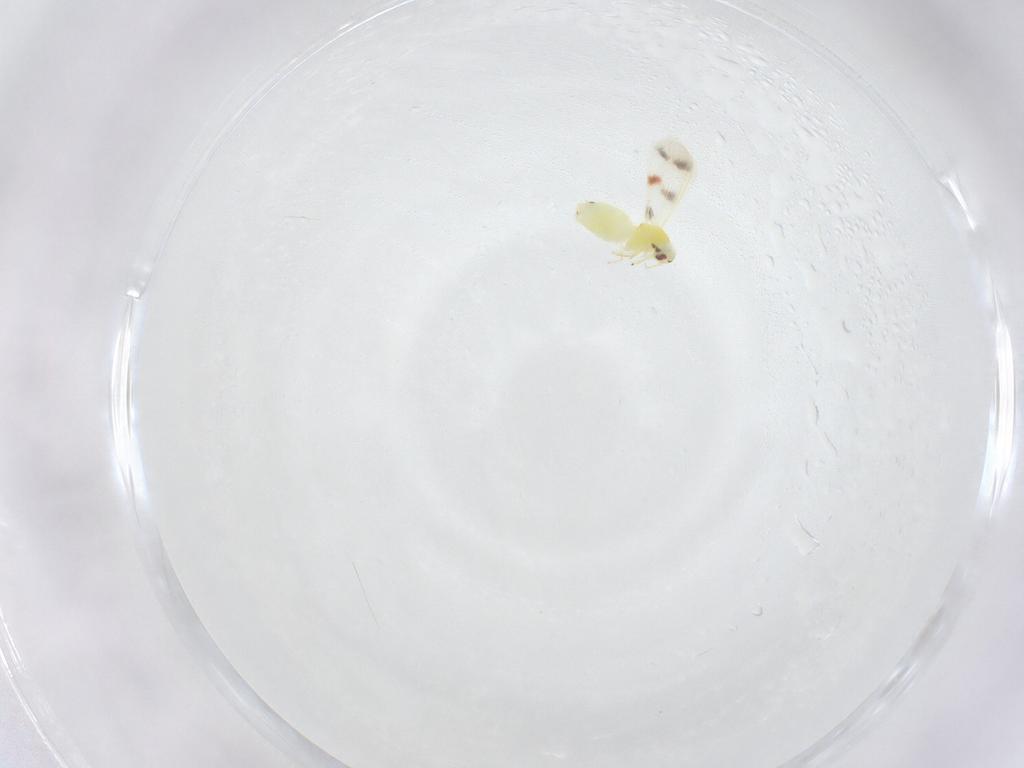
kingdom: Animalia
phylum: Arthropoda
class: Insecta
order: Hemiptera
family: Aleyrodidae
